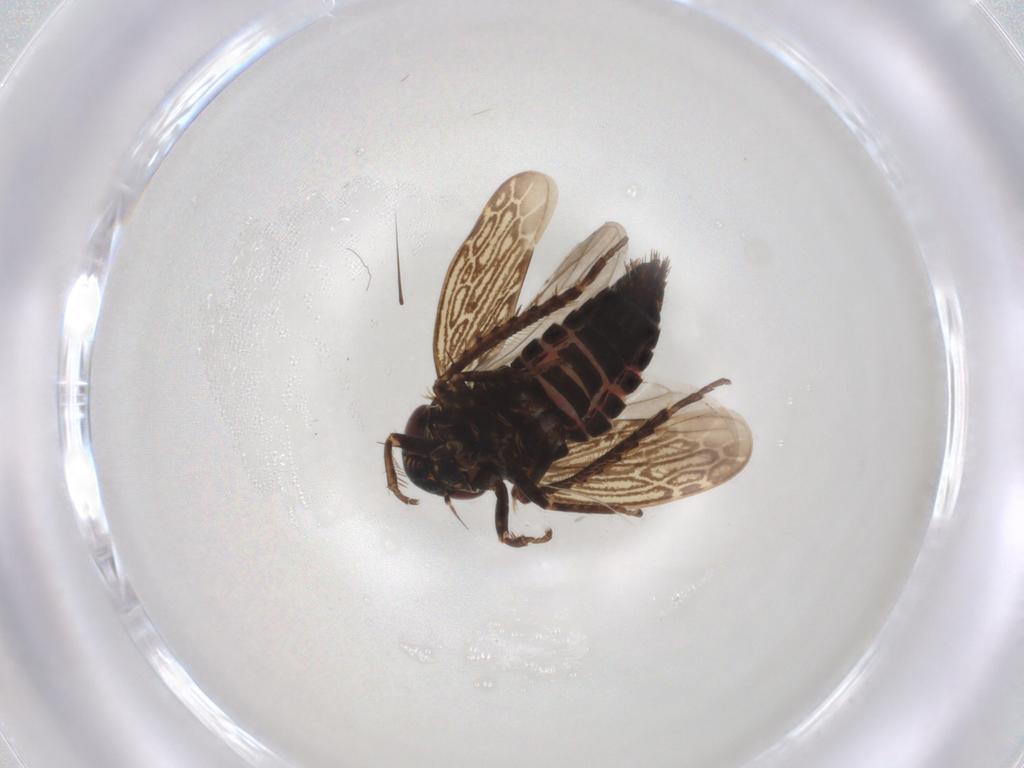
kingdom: Animalia
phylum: Arthropoda
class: Insecta
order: Hemiptera
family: Cicadellidae
